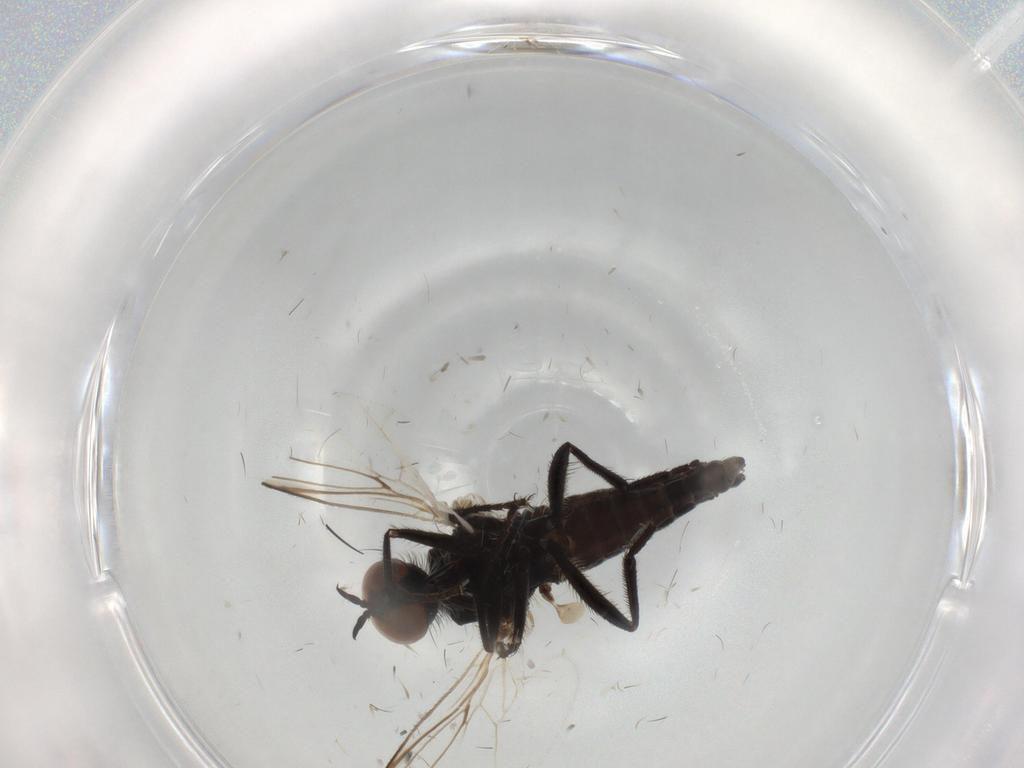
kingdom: Animalia
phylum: Arthropoda
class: Insecta
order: Diptera
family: Empididae
